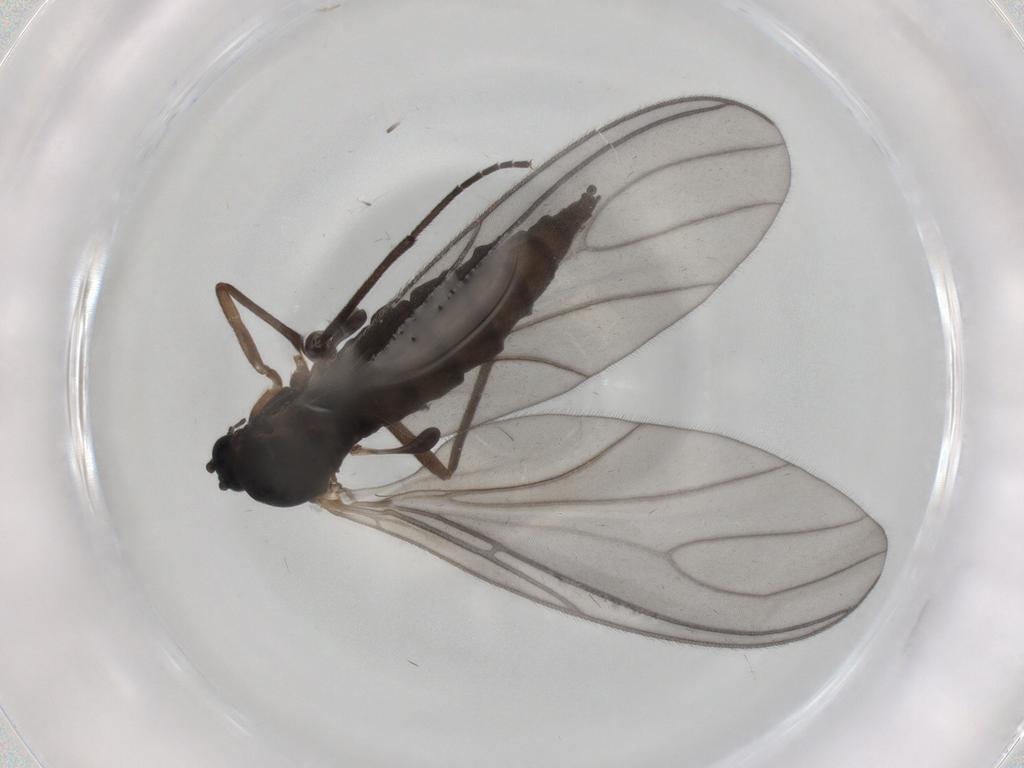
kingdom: Animalia
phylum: Arthropoda
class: Insecta
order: Diptera
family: Sciaridae
